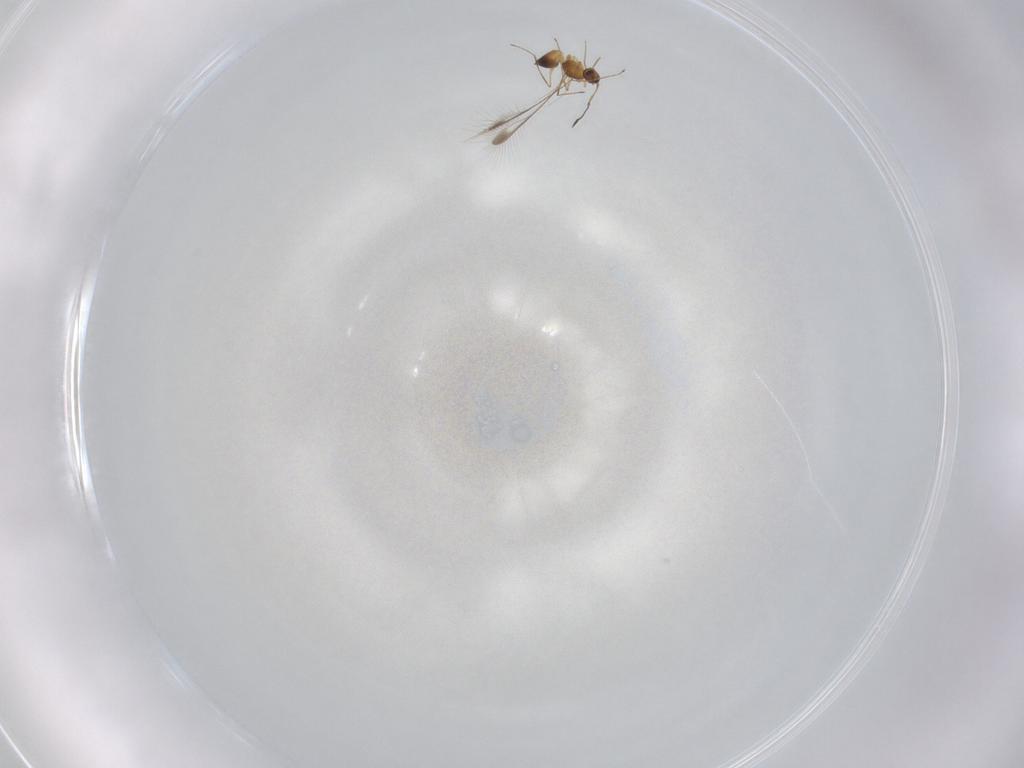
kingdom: Animalia
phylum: Arthropoda
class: Insecta
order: Hymenoptera
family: Mymaridae
